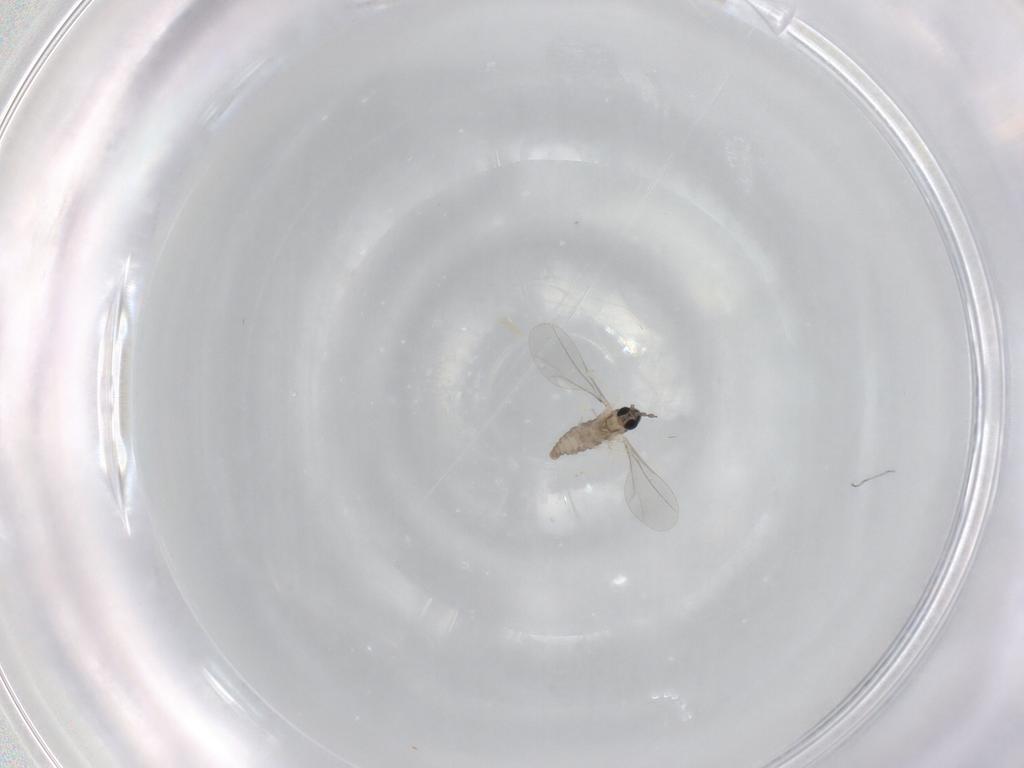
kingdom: Animalia
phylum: Arthropoda
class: Insecta
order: Diptera
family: Cecidomyiidae
